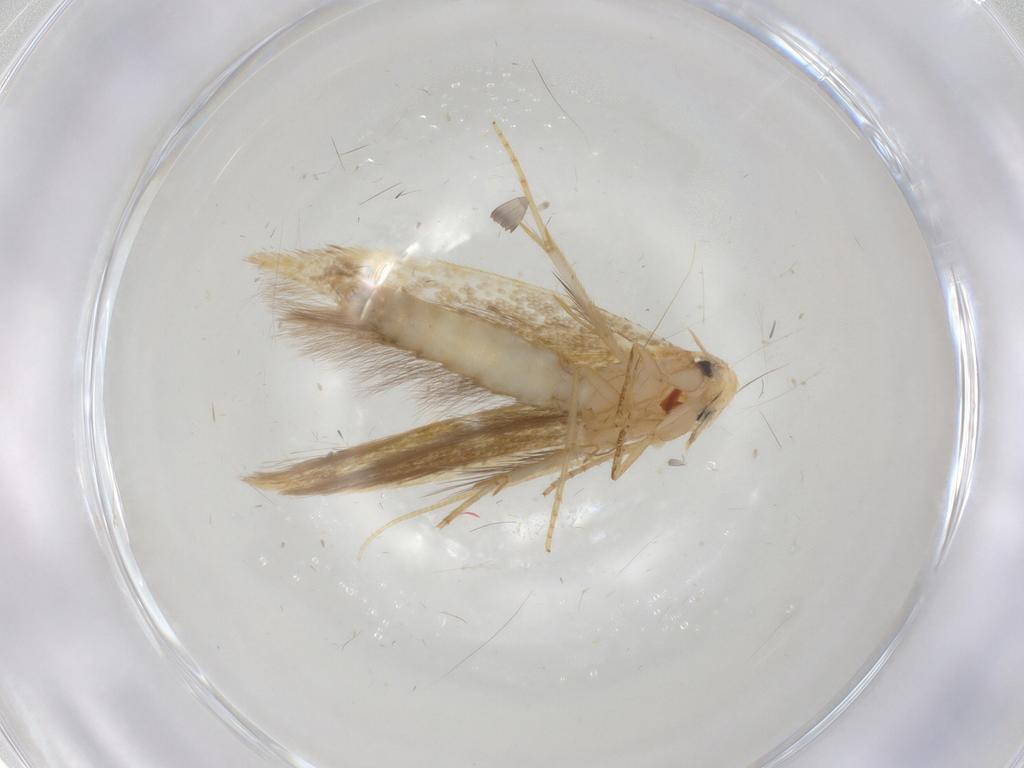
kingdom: Animalia
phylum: Arthropoda
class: Insecta
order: Lepidoptera
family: Tineidae
